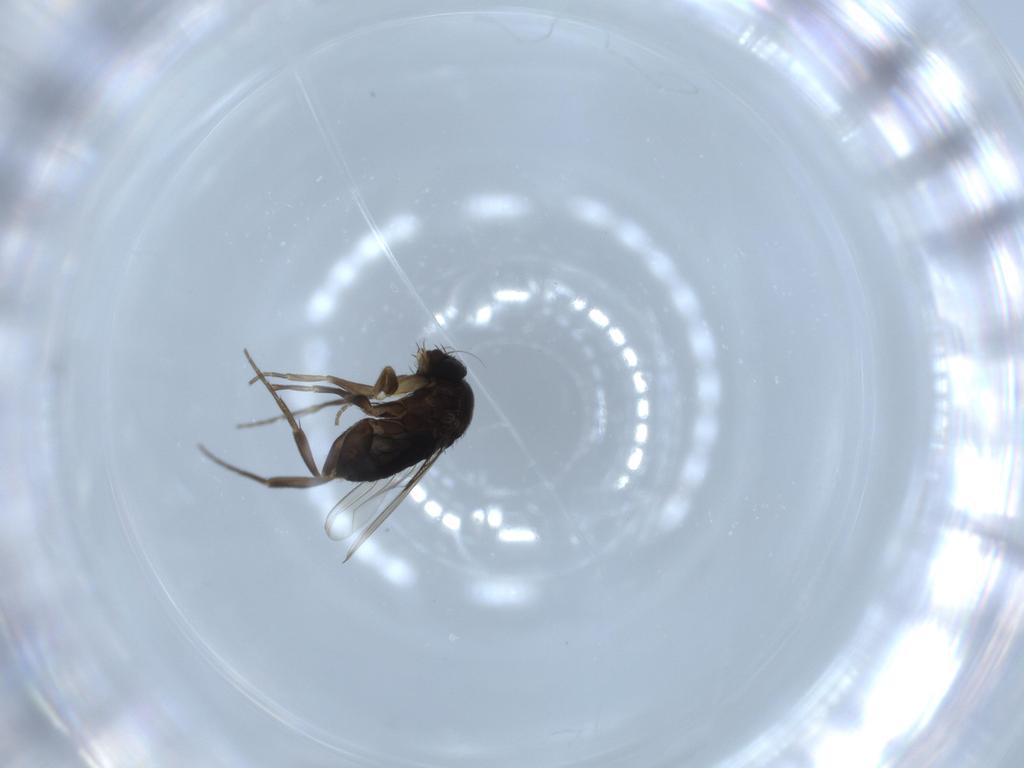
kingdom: Animalia
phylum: Arthropoda
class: Insecta
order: Diptera
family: Phoridae
